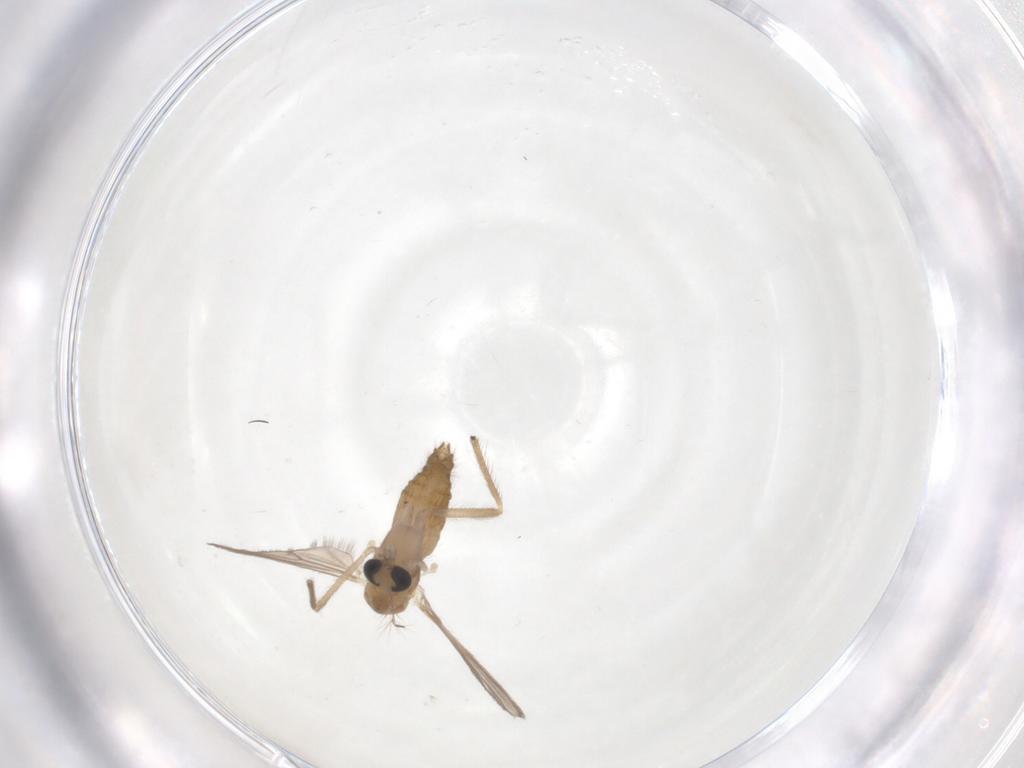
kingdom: Animalia
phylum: Arthropoda
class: Insecta
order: Diptera
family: Chironomidae
